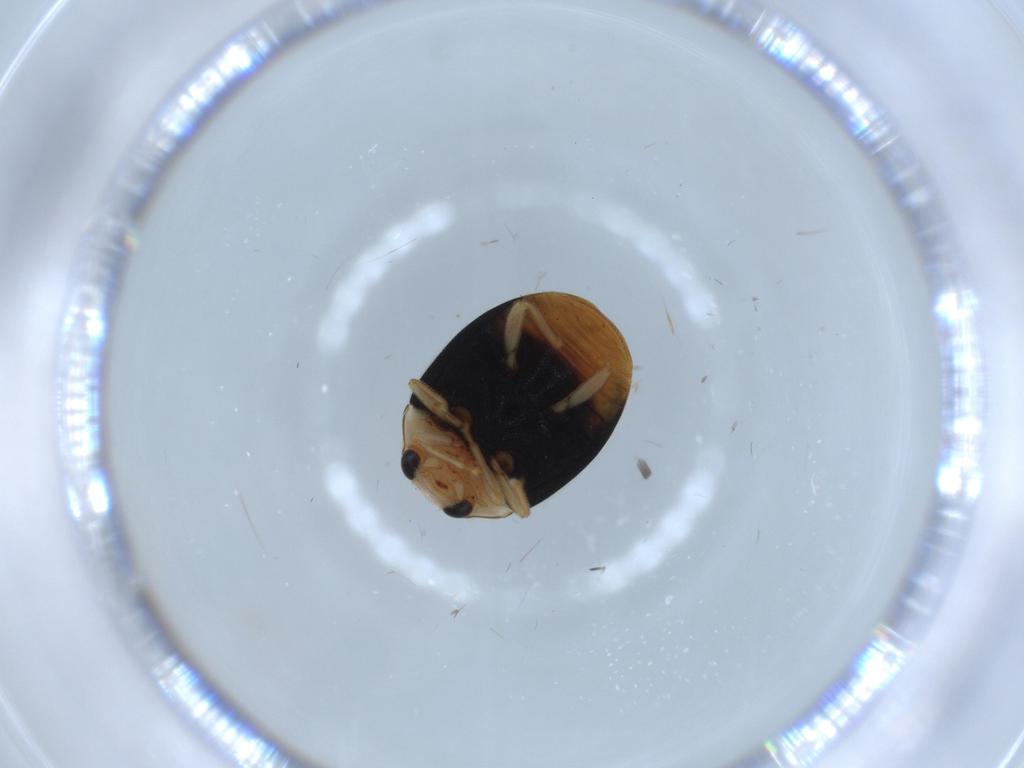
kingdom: Animalia
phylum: Arthropoda
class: Insecta
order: Coleoptera
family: Coccinellidae
